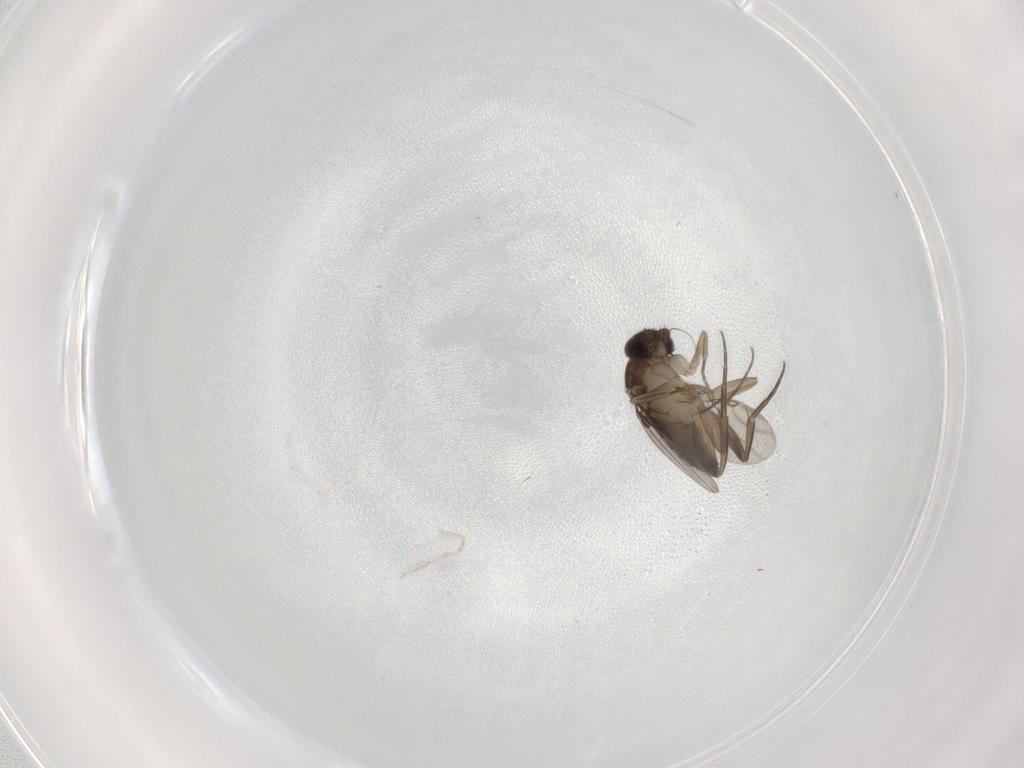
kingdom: Animalia
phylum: Arthropoda
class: Insecta
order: Diptera
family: Phoridae
